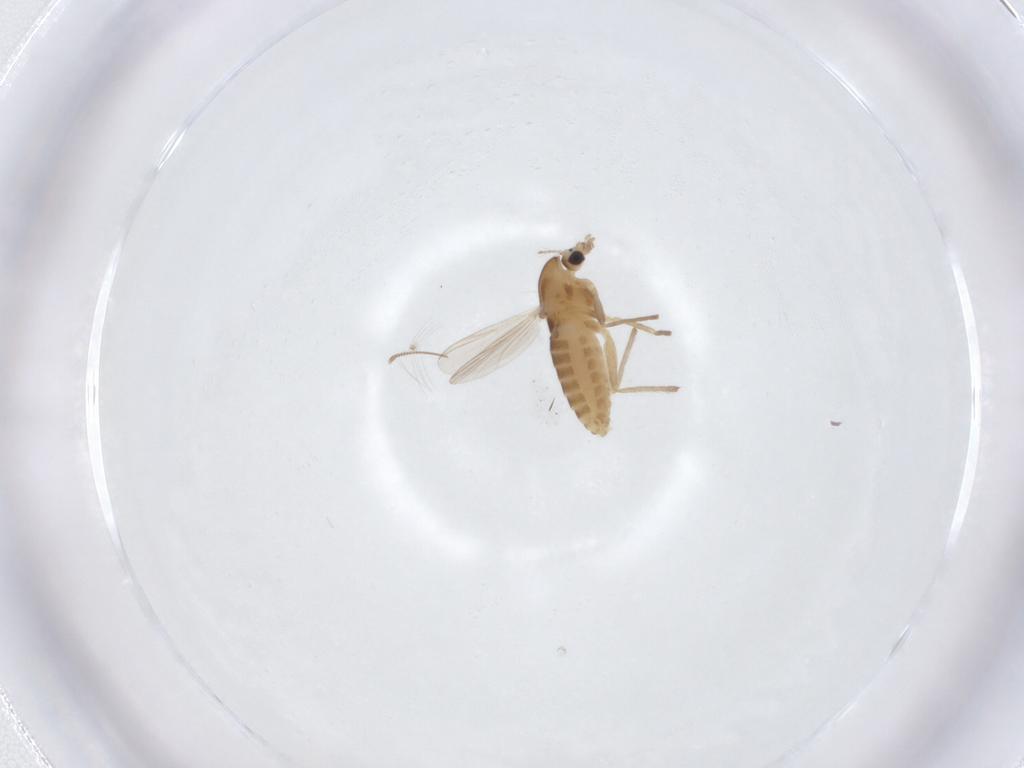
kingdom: Animalia
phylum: Arthropoda
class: Insecta
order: Diptera
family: Chironomidae
